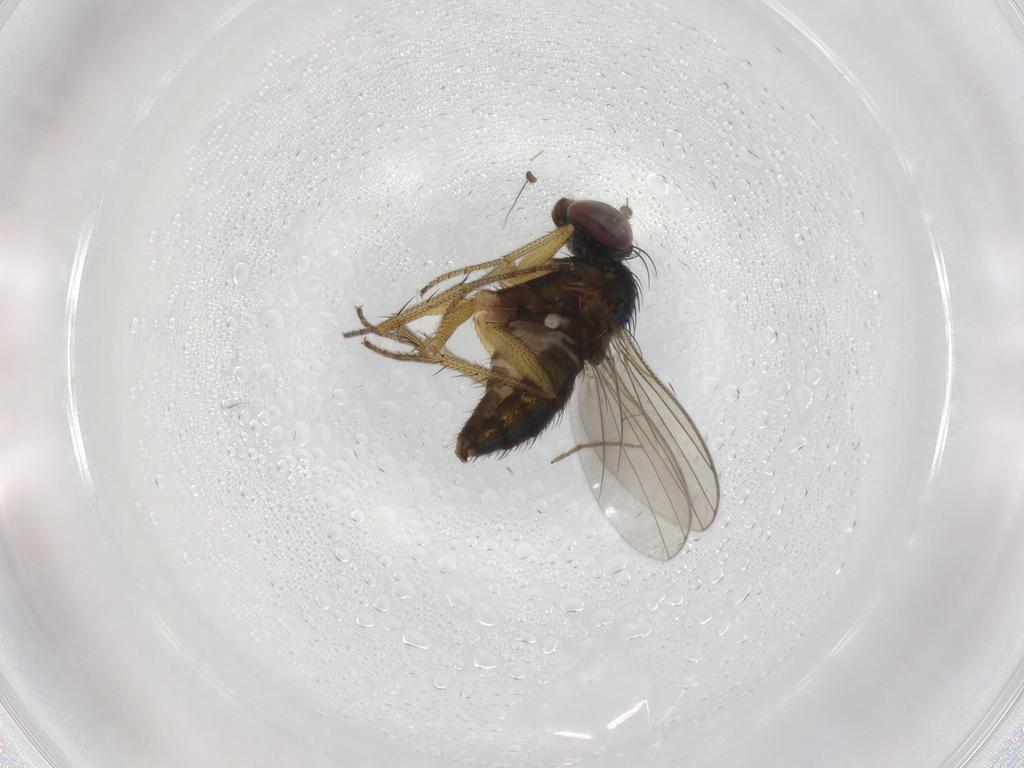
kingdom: Animalia
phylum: Arthropoda
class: Insecta
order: Diptera
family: Dolichopodidae
